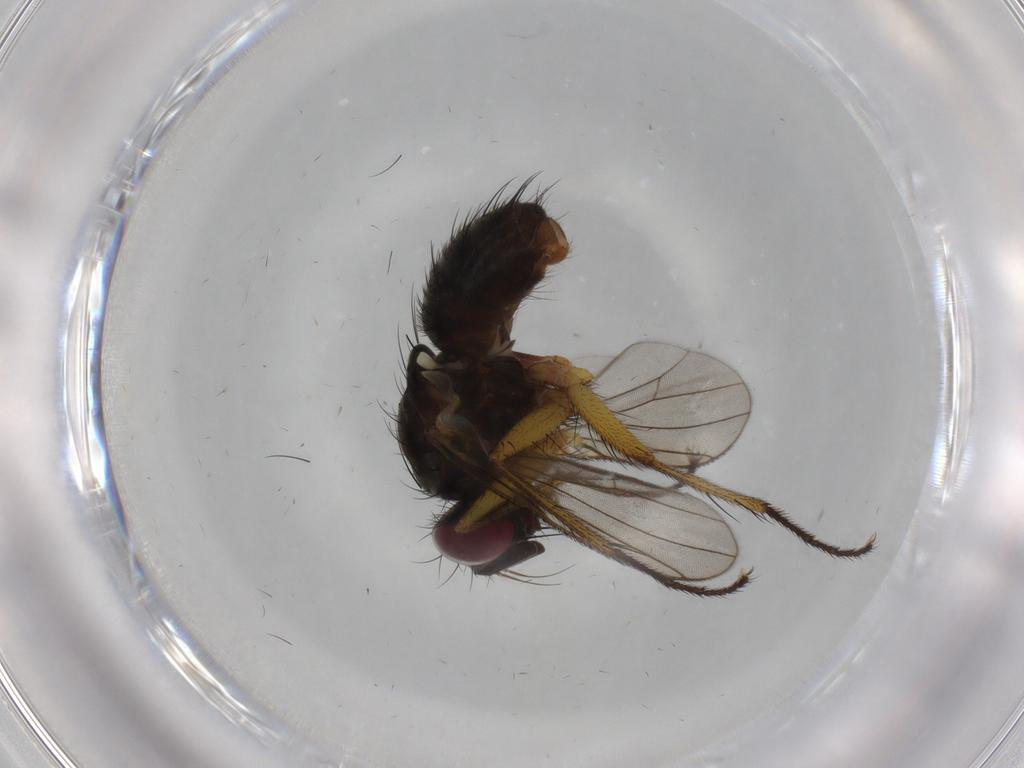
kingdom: Animalia
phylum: Arthropoda
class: Insecta
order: Diptera
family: Muscidae
